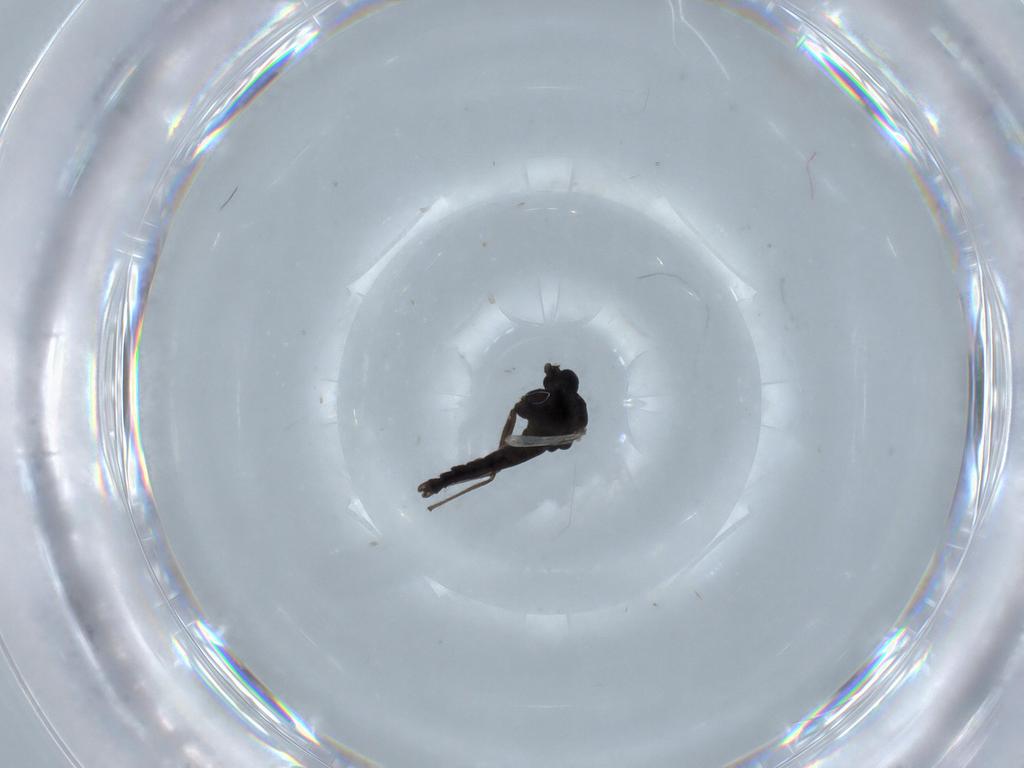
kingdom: Animalia
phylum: Arthropoda
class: Insecta
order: Diptera
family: Chironomidae
